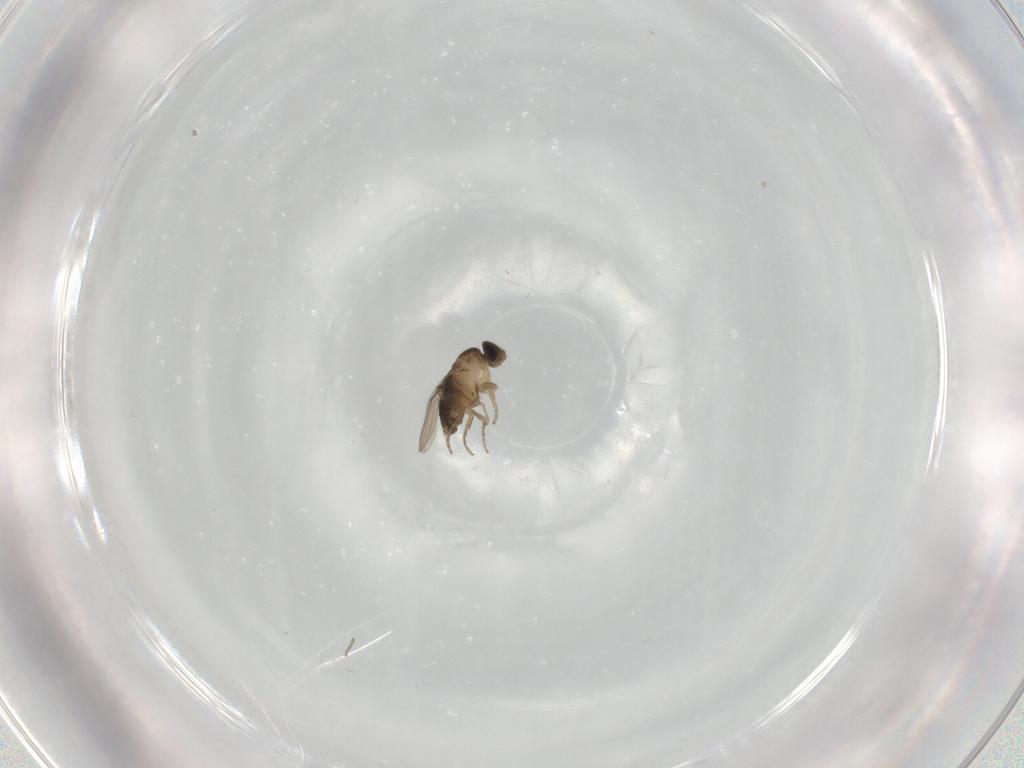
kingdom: Animalia
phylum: Arthropoda
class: Insecta
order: Diptera
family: Phoridae
